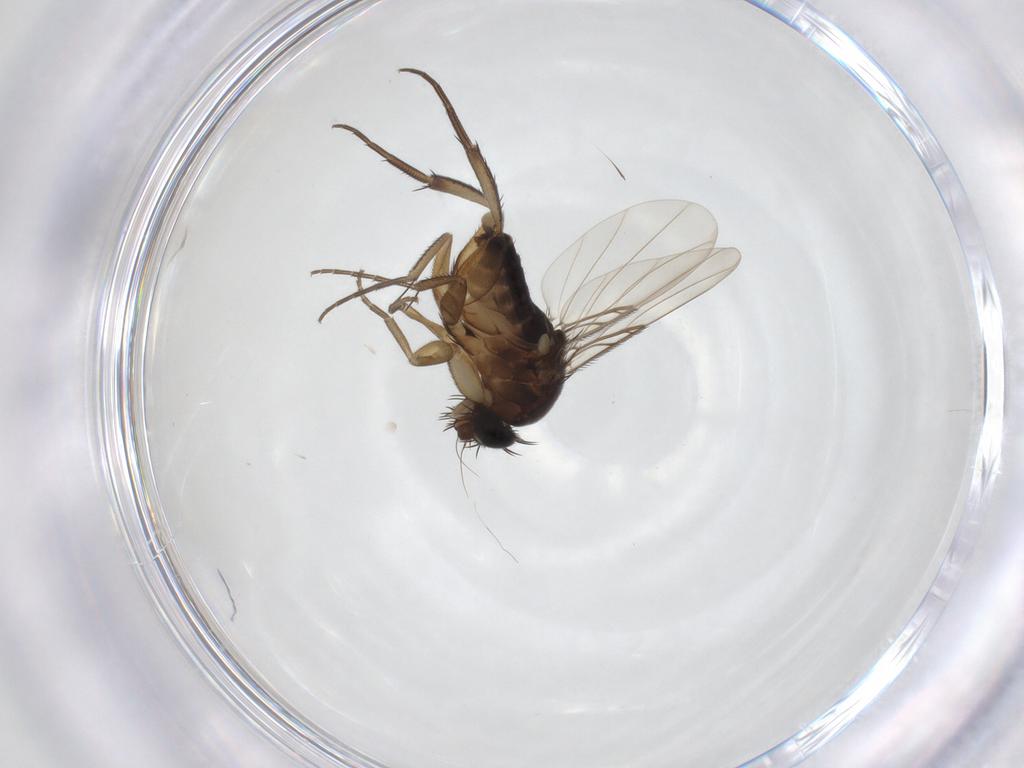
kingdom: Animalia
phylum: Arthropoda
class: Insecta
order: Diptera
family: Phoridae
